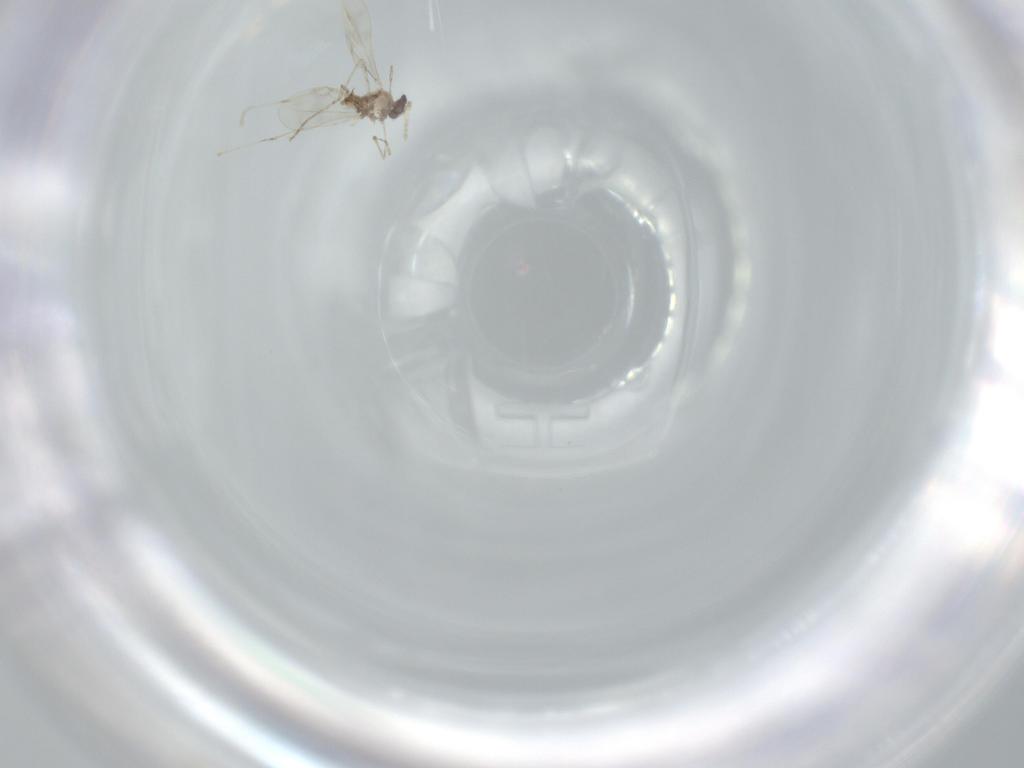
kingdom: Animalia
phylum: Arthropoda
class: Insecta
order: Diptera
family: Cecidomyiidae
